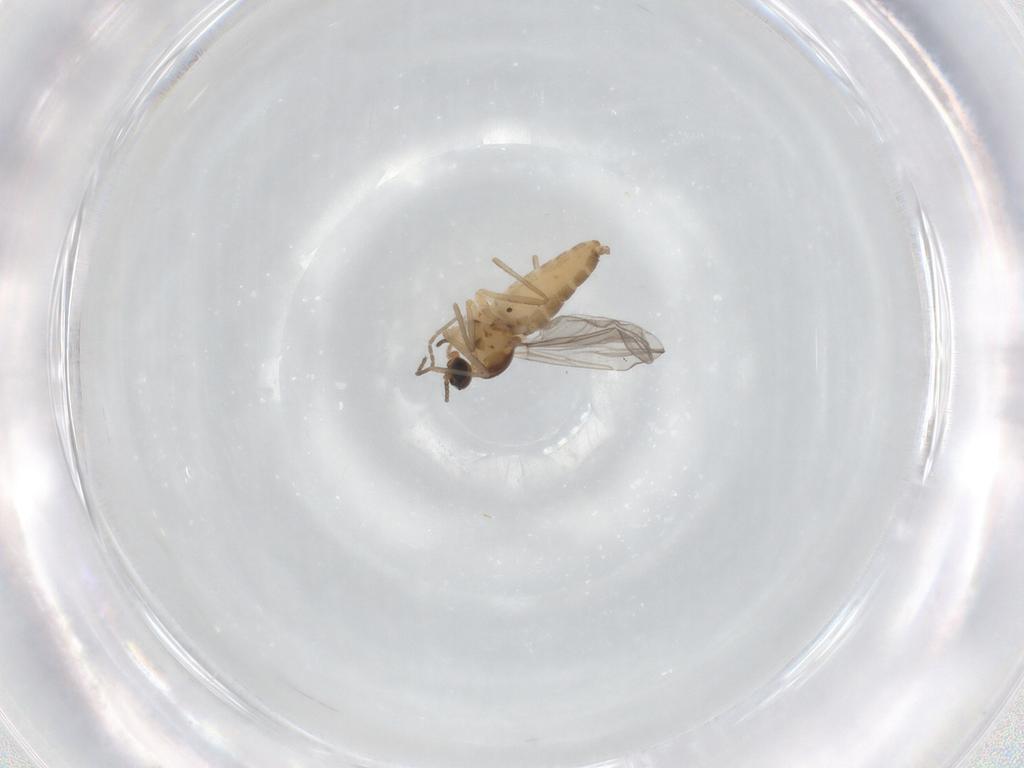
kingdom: Animalia
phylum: Arthropoda
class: Insecta
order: Diptera
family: Cecidomyiidae
